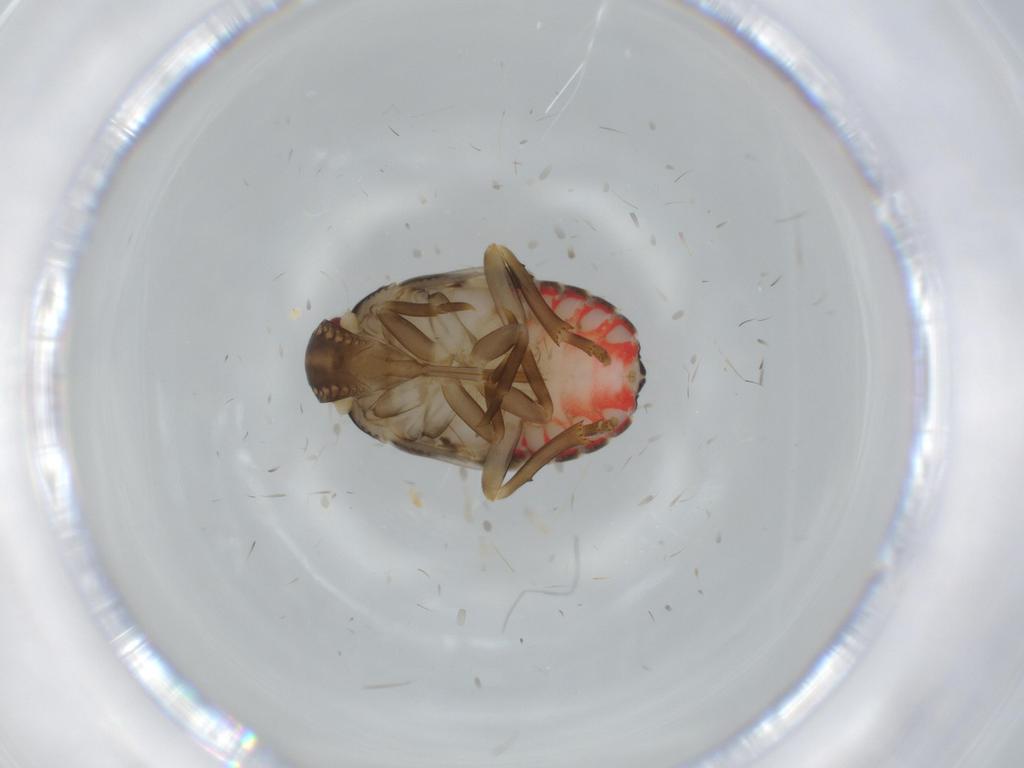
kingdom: Animalia
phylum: Arthropoda
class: Insecta
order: Hemiptera
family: Achilidae
